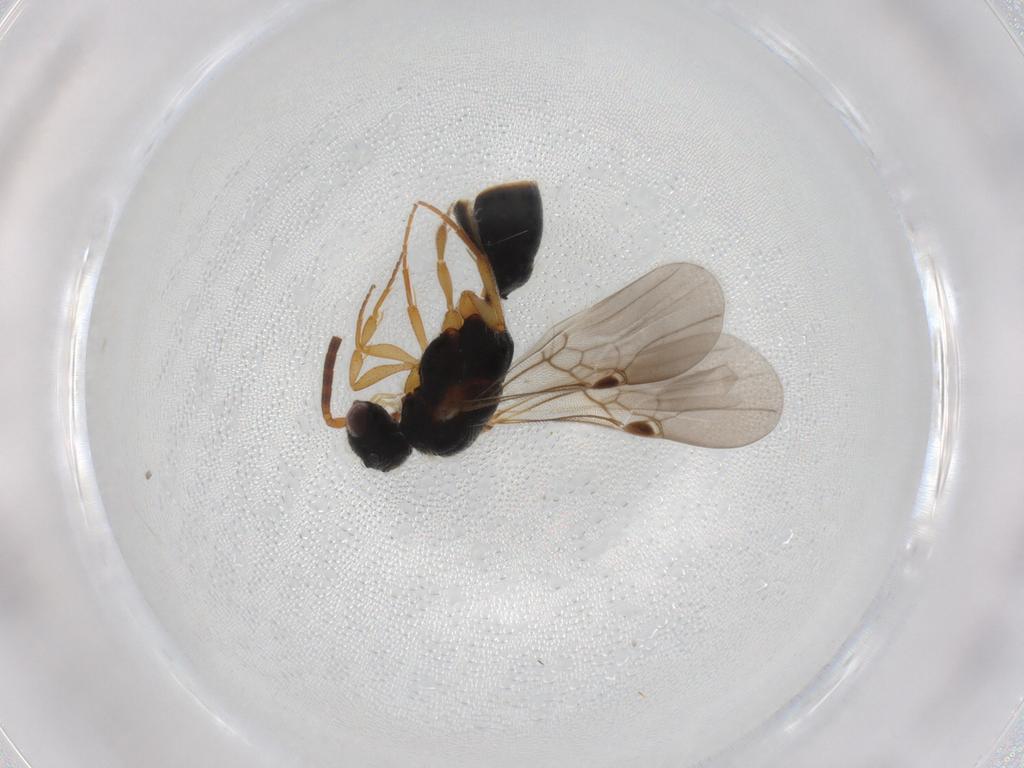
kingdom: Animalia
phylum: Arthropoda
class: Insecta
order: Hymenoptera
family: Mutillidae
